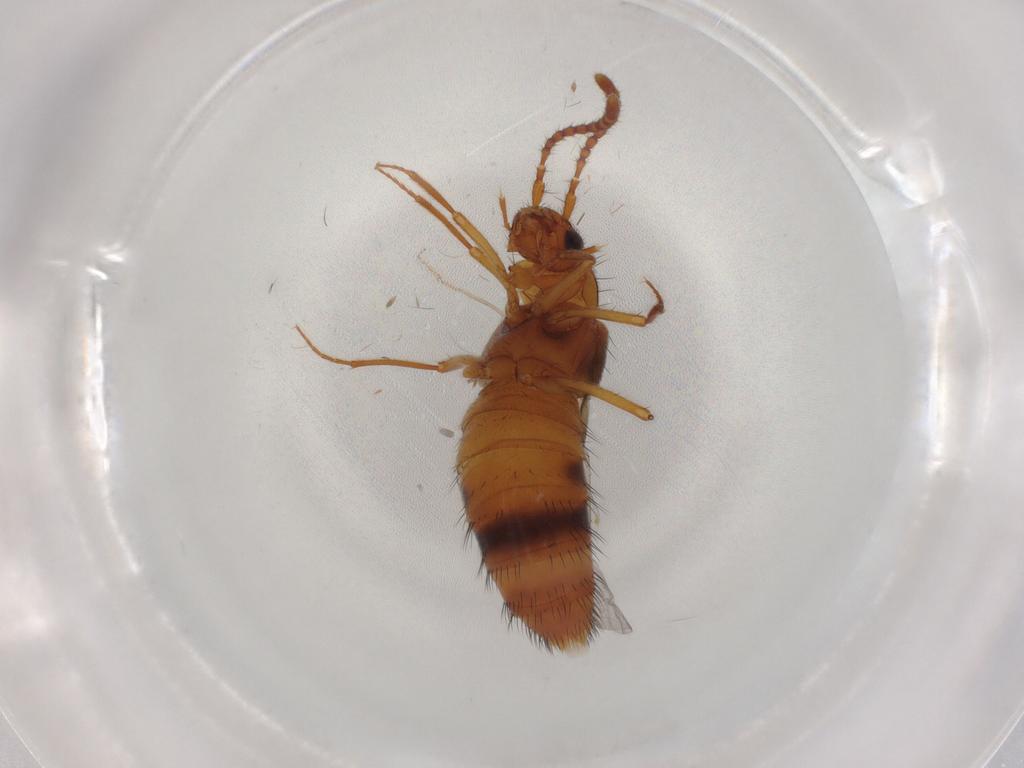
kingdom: Animalia
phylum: Arthropoda
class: Insecta
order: Coleoptera
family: Staphylinidae
